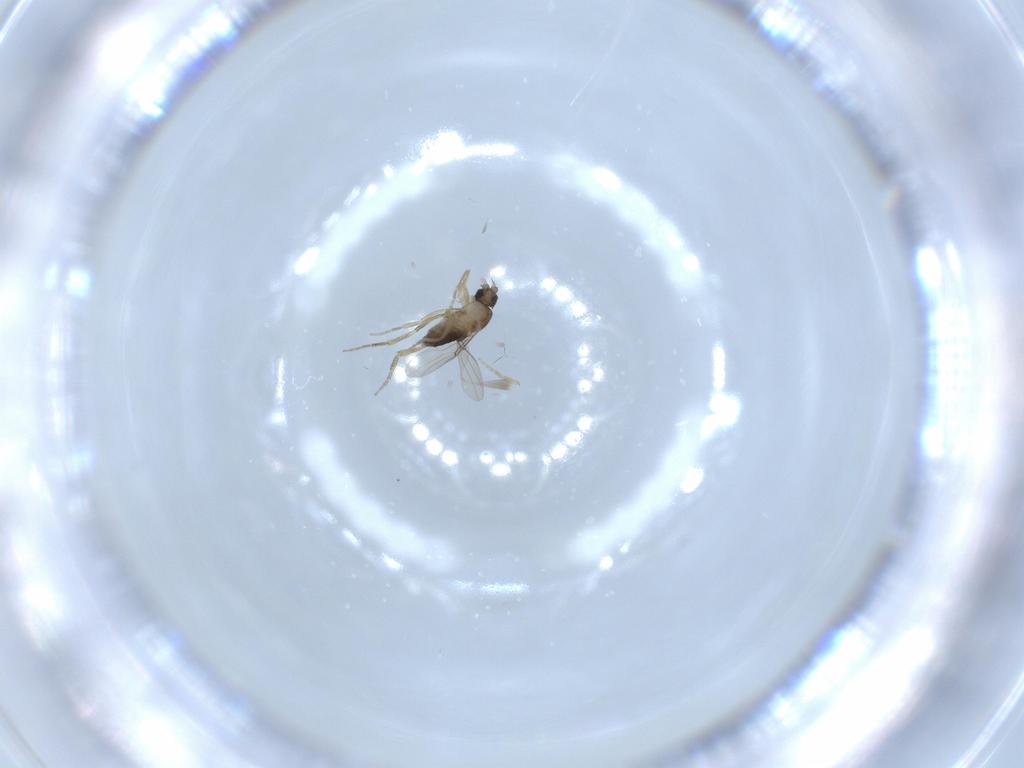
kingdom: Animalia
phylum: Arthropoda
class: Insecta
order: Diptera
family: Phoridae
